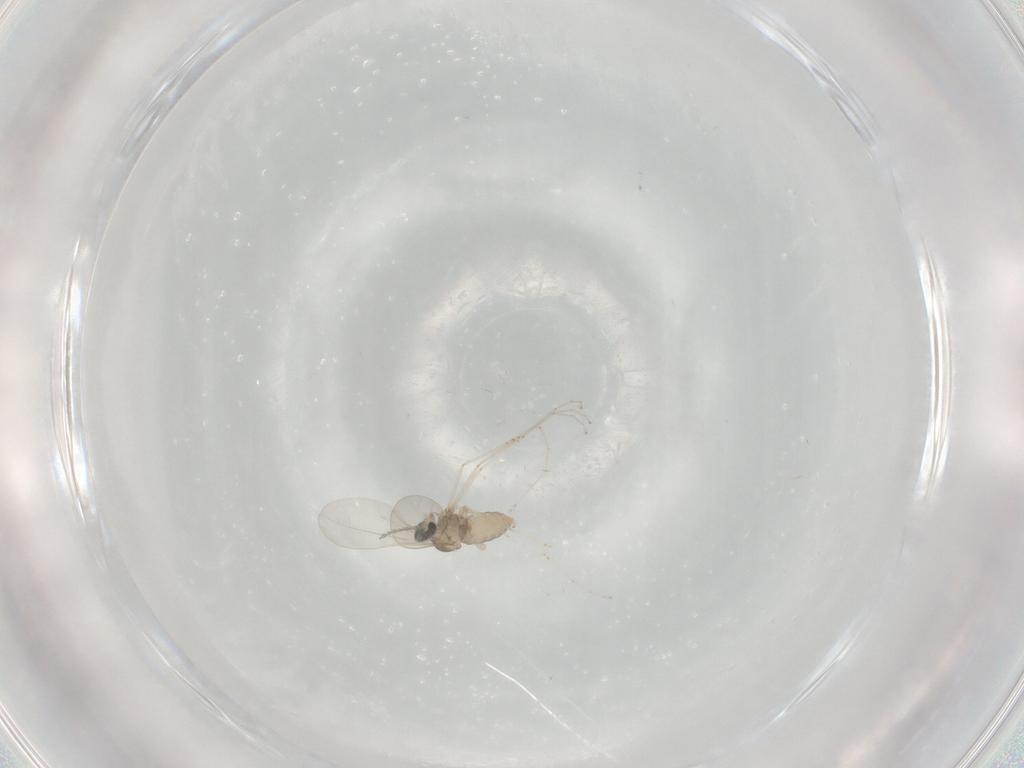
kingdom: Animalia
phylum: Arthropoda
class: Insecta
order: Diptera
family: Cecidomyiidae
